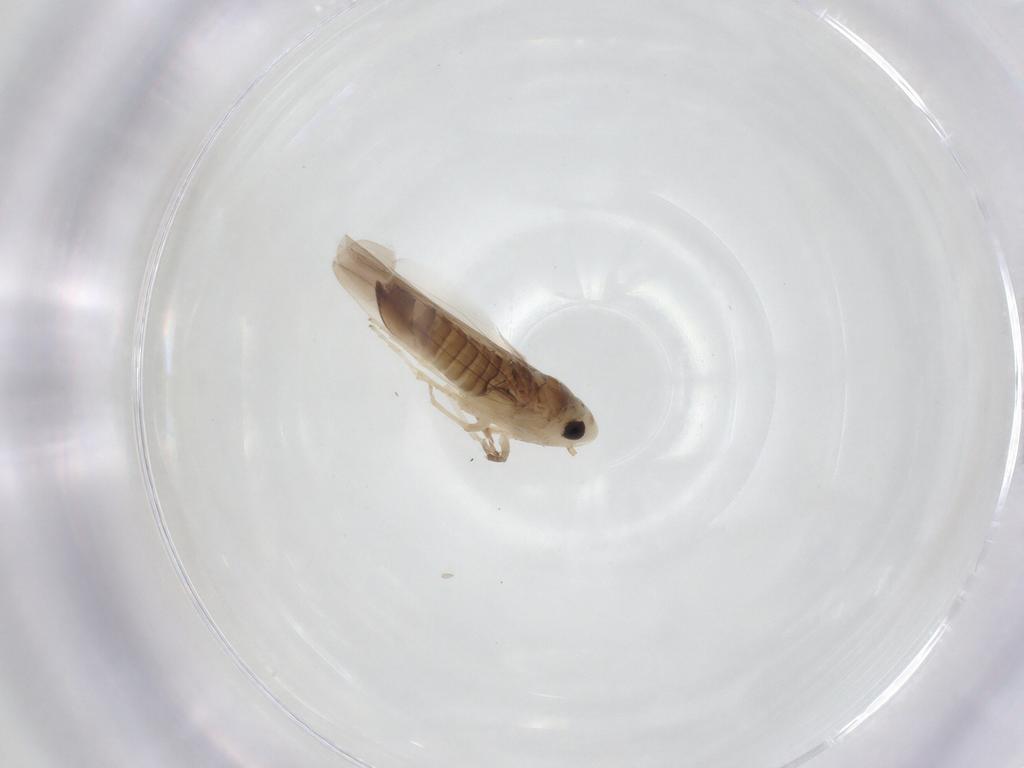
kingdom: Animalia
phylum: Arthropoda
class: Insecta
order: Hemiptera
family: Cicadellidae
